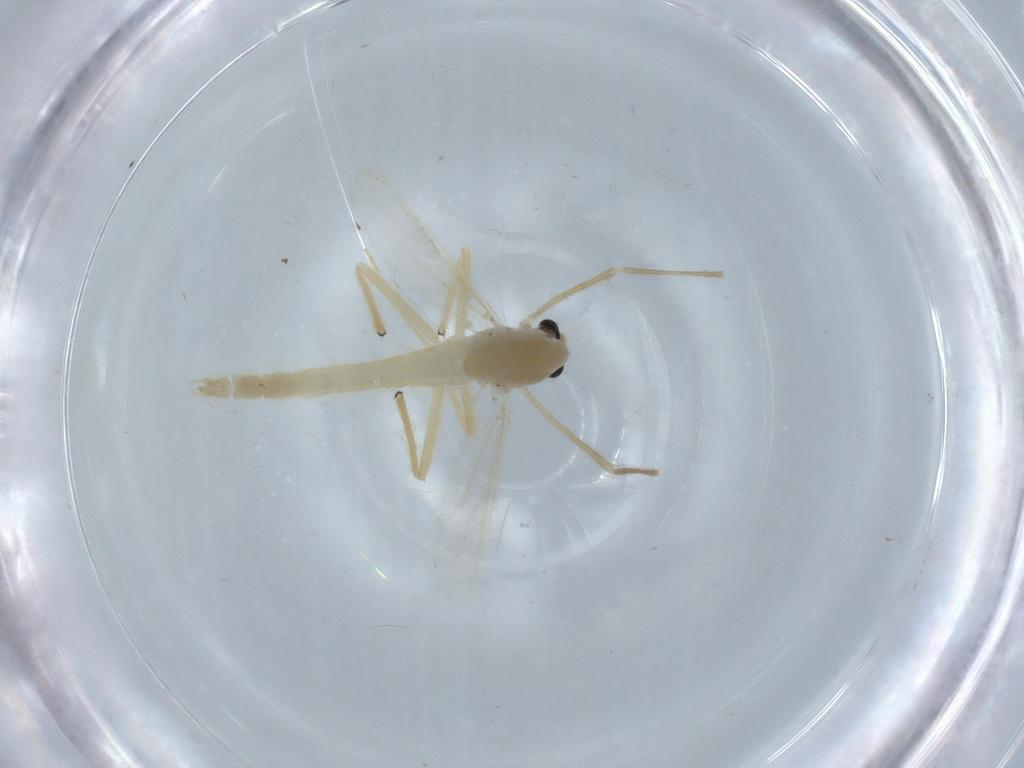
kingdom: Animalia
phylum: Arthropoda
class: Insecta
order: Diptera
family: Chironomidae
